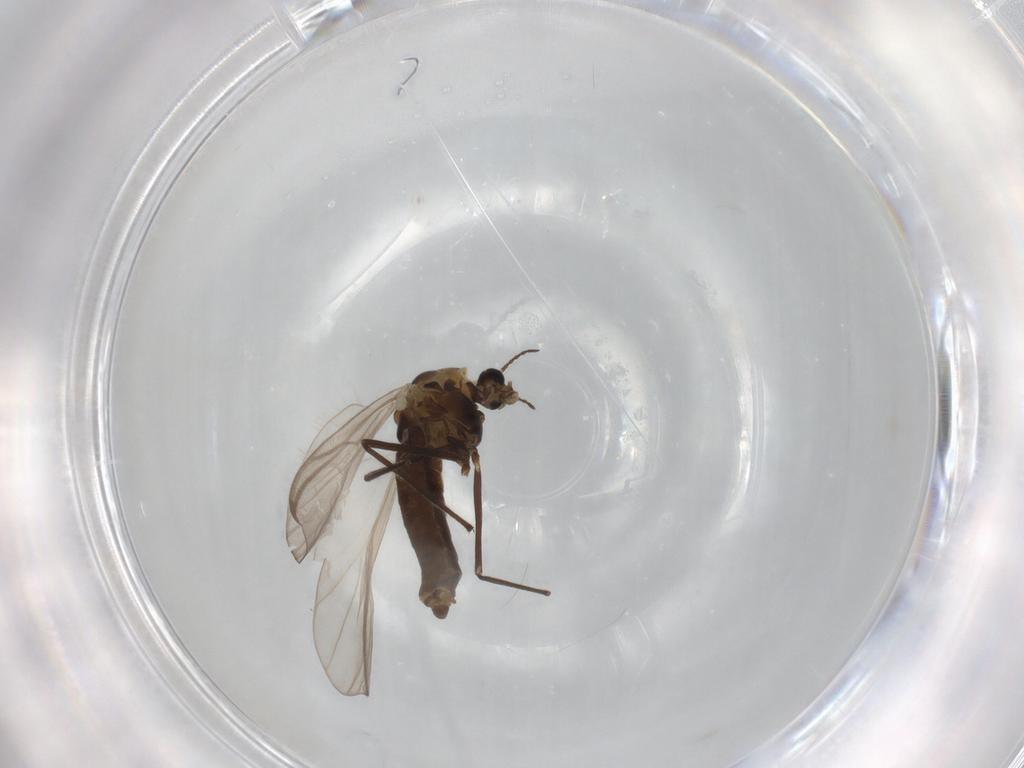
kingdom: Animalia
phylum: Arthropoda
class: Insecta
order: Diptera
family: Chironomidae
